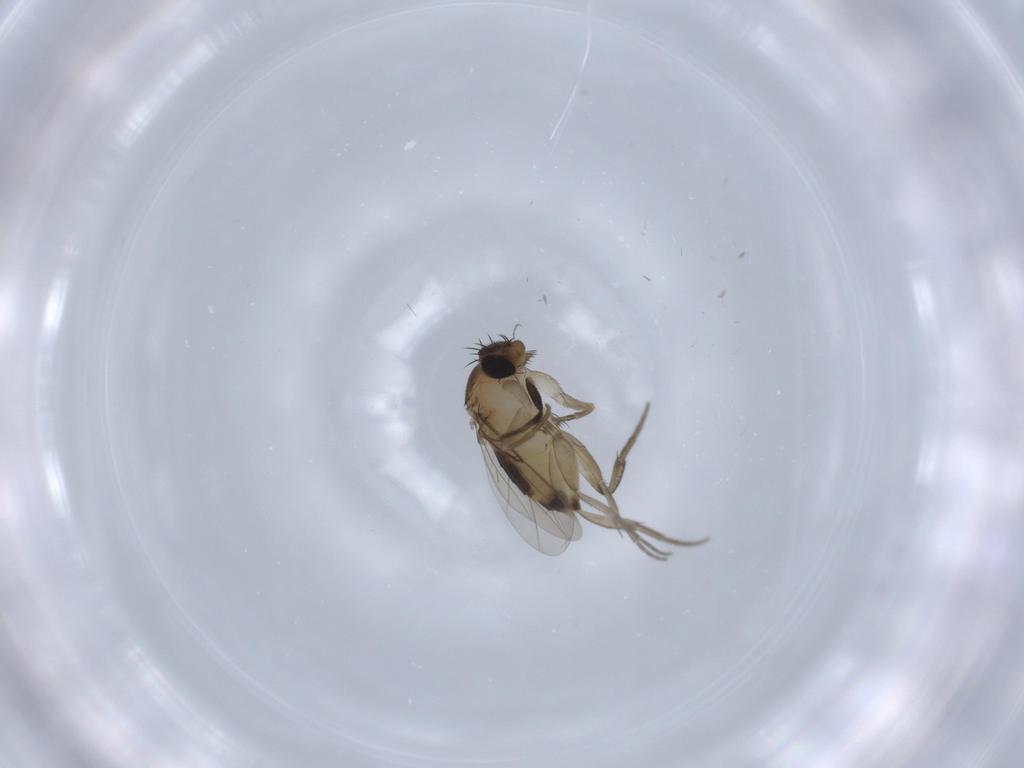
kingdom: Animalia
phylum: Arthropoda
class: Insecta
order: Diptera
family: Phoridae
